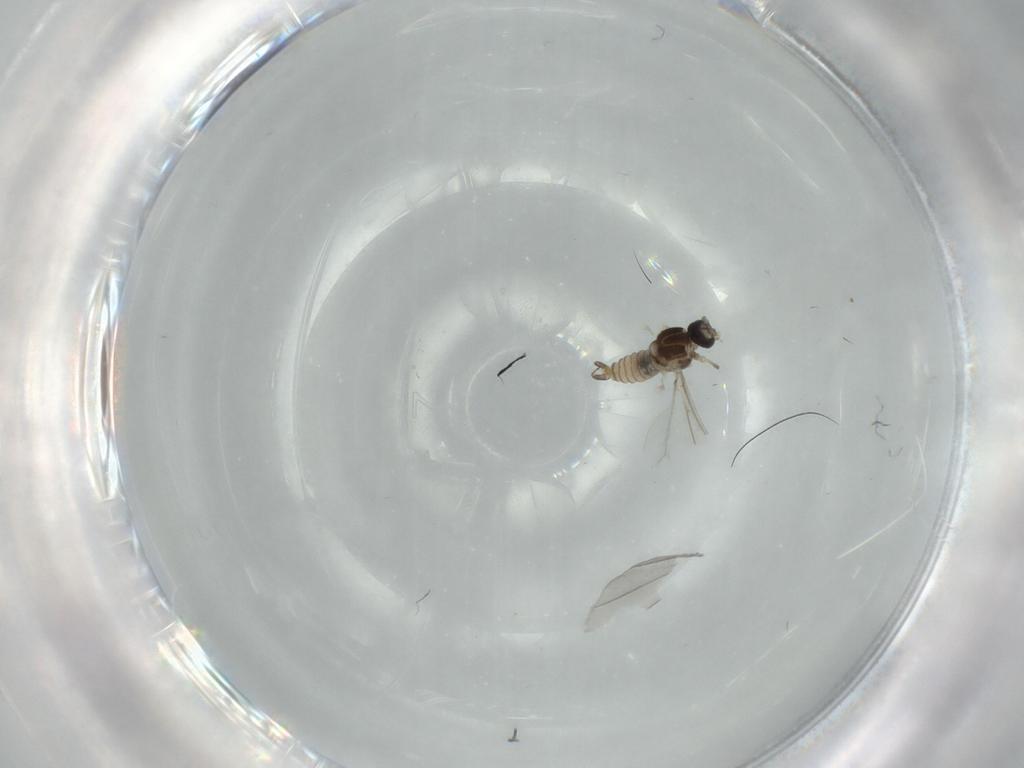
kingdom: Animalia
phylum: Arthropoda
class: Insecta
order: Diptera
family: Cecidomyiidae
